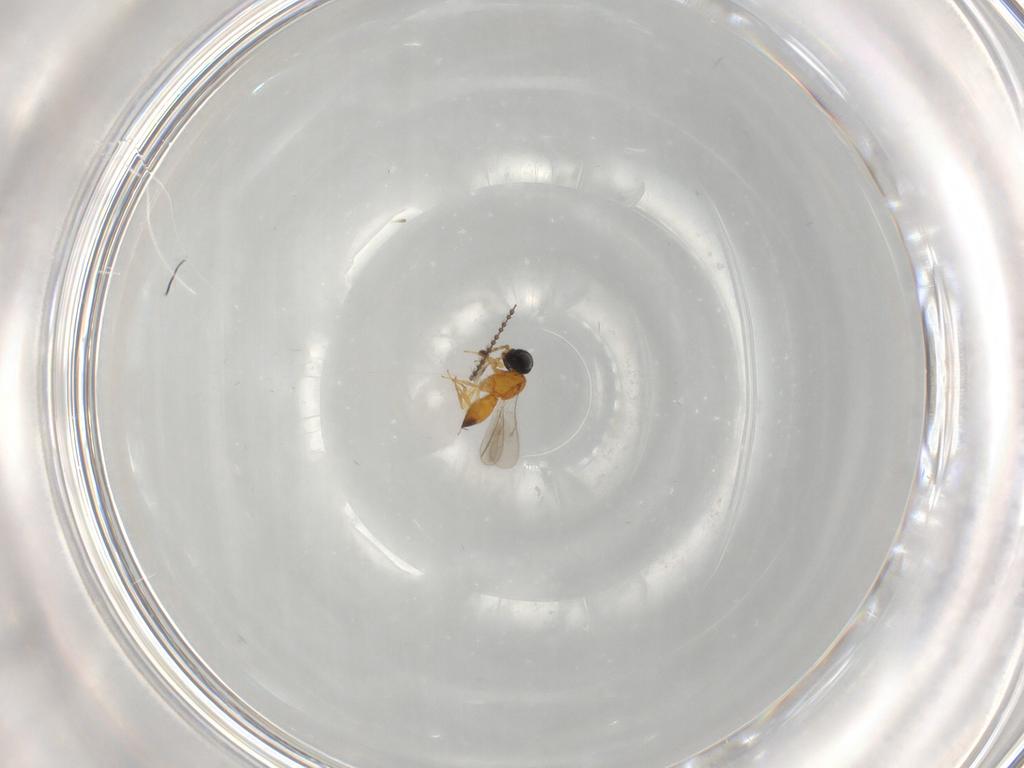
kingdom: Animalia
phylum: Arthropoda
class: Insecta
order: Hymenoptera
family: Scelionidae
